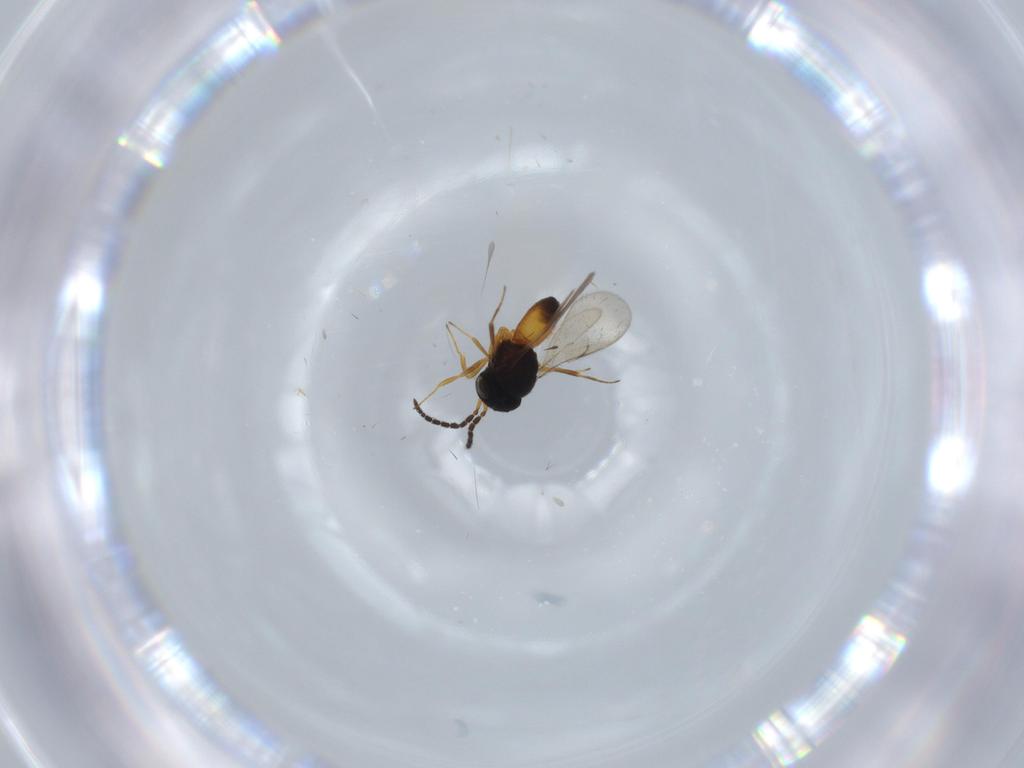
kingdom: Animalia
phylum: Arthropoda
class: Insecta
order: Hymenoptera
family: Scelionidae
